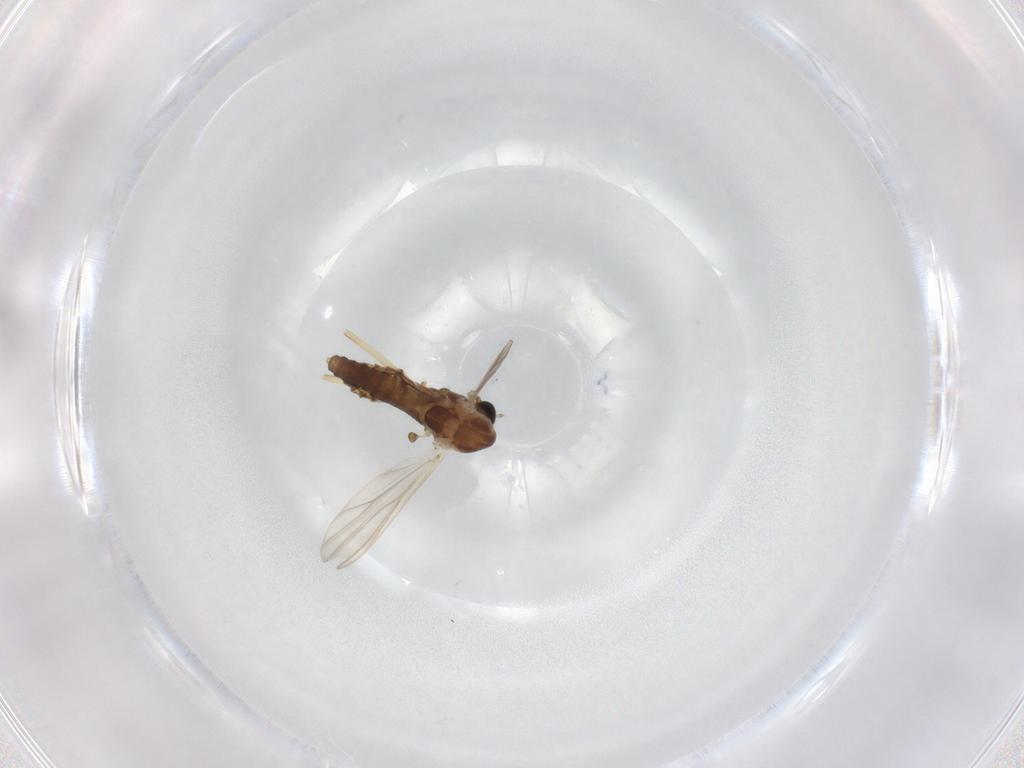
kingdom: Animalia
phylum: Arthropoda
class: Insecta
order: Diptera
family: Chironomidae
